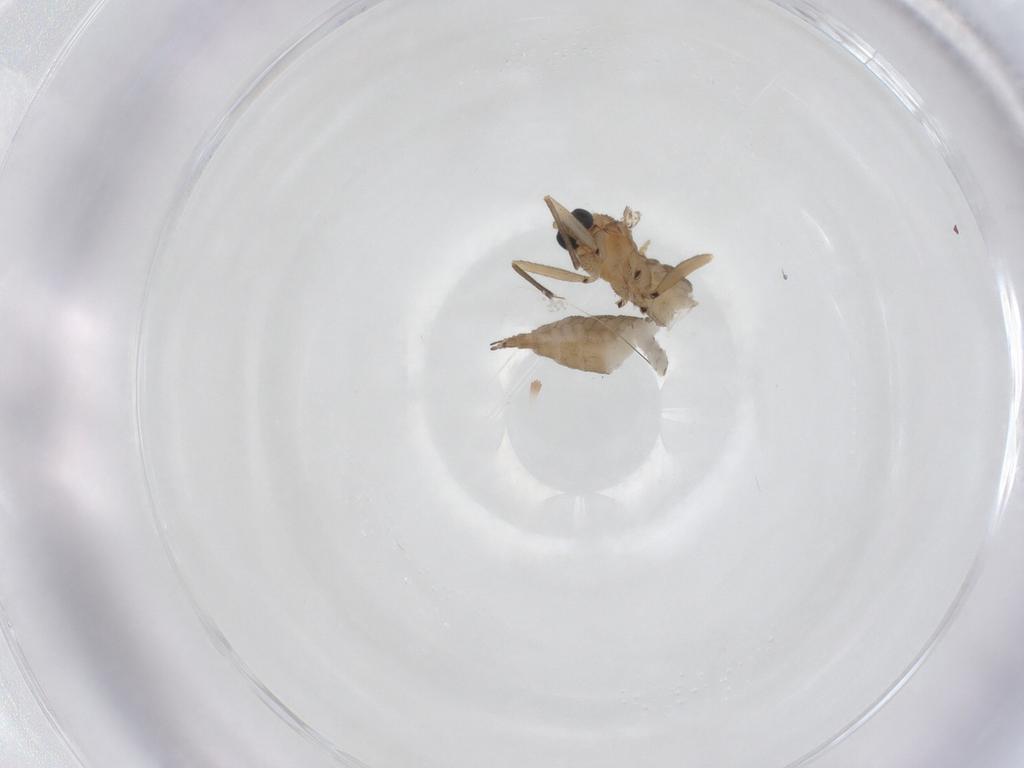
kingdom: Animalia
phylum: Arthropoda
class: Insecta
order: Diptera
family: Sciaridae
